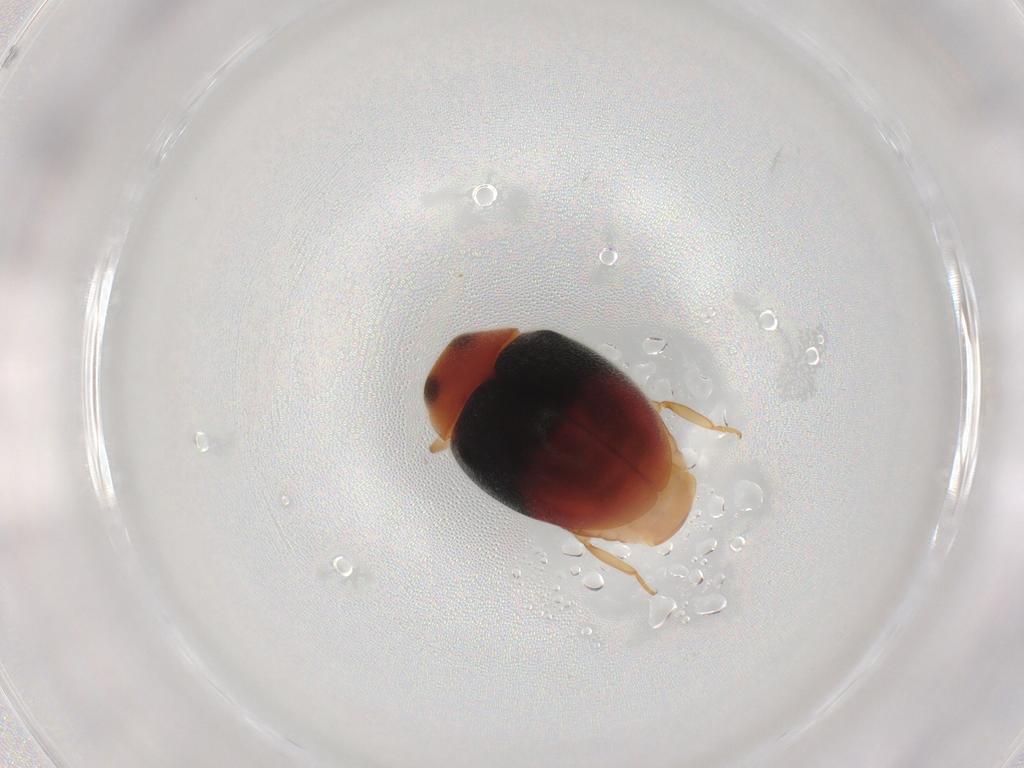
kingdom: Animalia
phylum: Arthropoda
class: Insecta
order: Coleoptera
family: Coccinellidae
